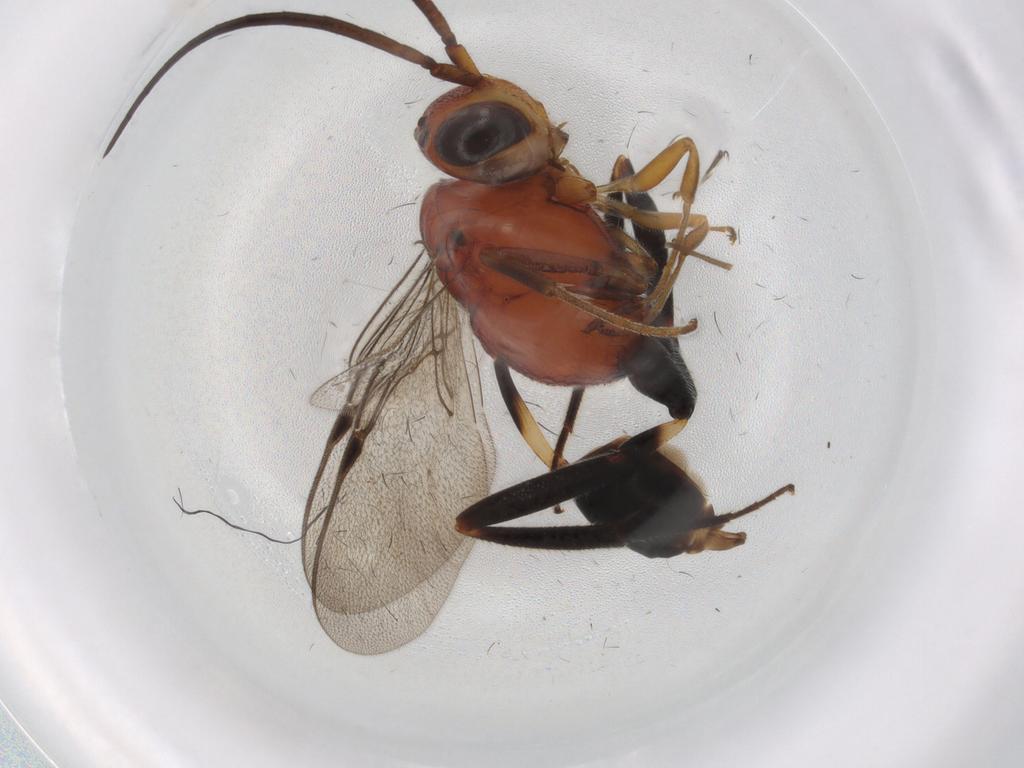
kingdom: Animalia
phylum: Arthropoda
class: Insecta
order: Hymenoptera
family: Evaniidae
